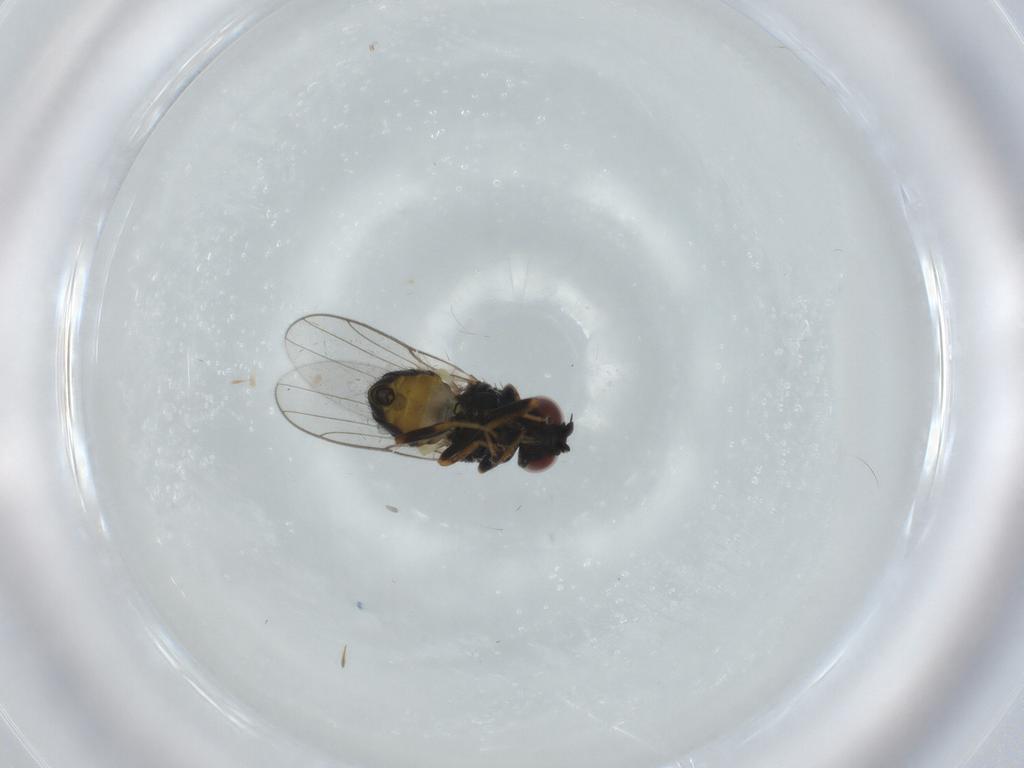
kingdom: Animalia
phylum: Arthropoda
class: Insecta
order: Diptera
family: Chloropidae
